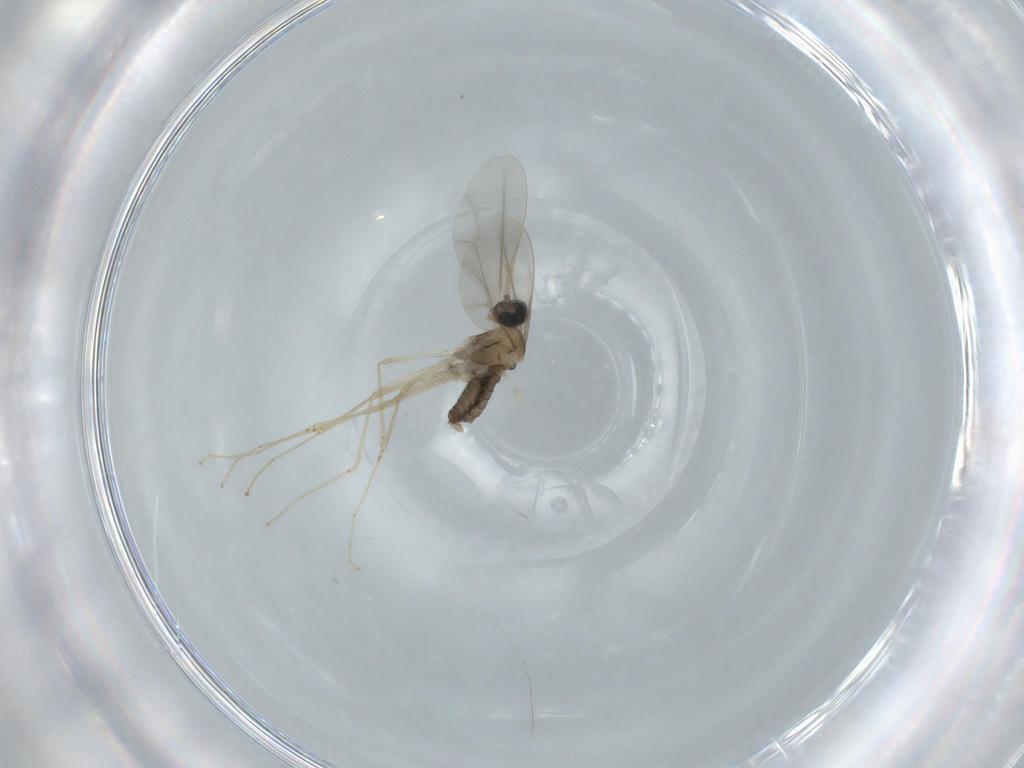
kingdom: Animalia
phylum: Arthropoda
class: Insecta
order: Diptera
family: Cecidomyiidae
